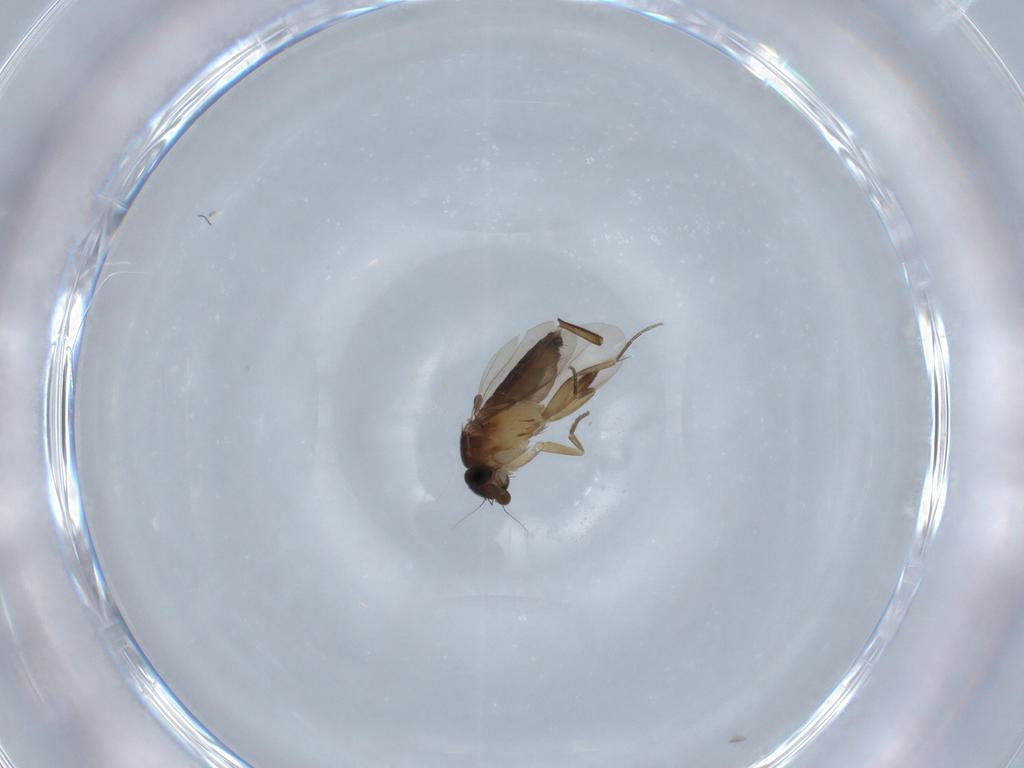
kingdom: Animalia
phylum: Arthropoda
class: Insecta
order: Diptera
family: Phoridae
